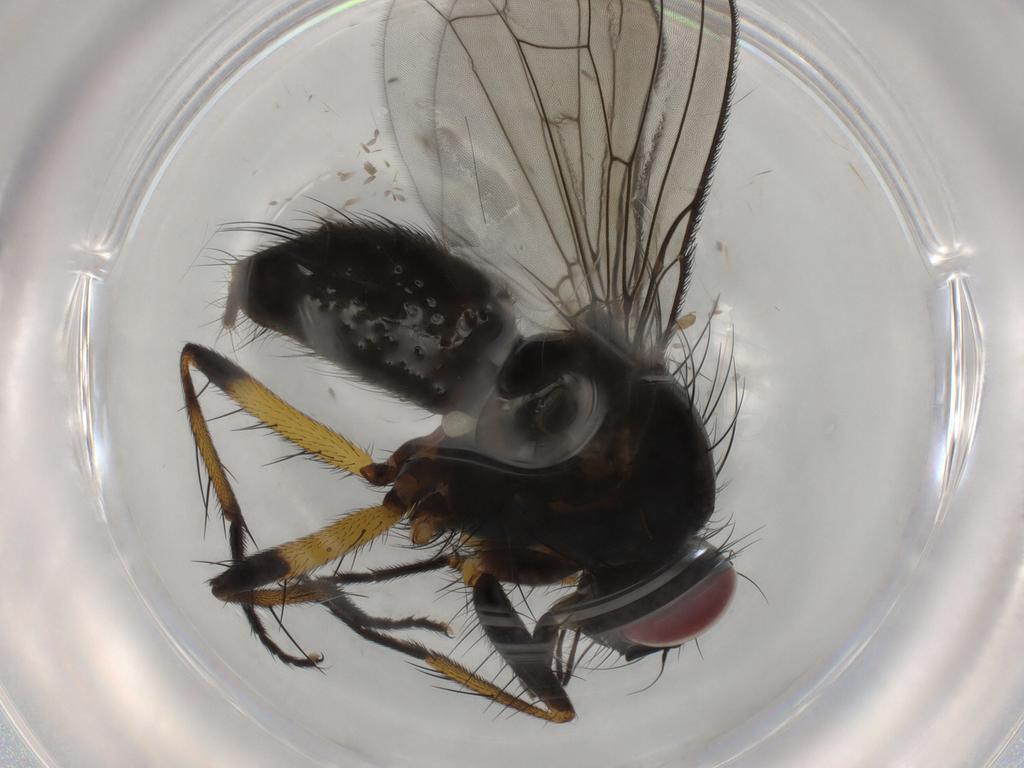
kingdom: Animalia
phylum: Arthropoda
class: Insecta
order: Diptera
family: Muscidae
